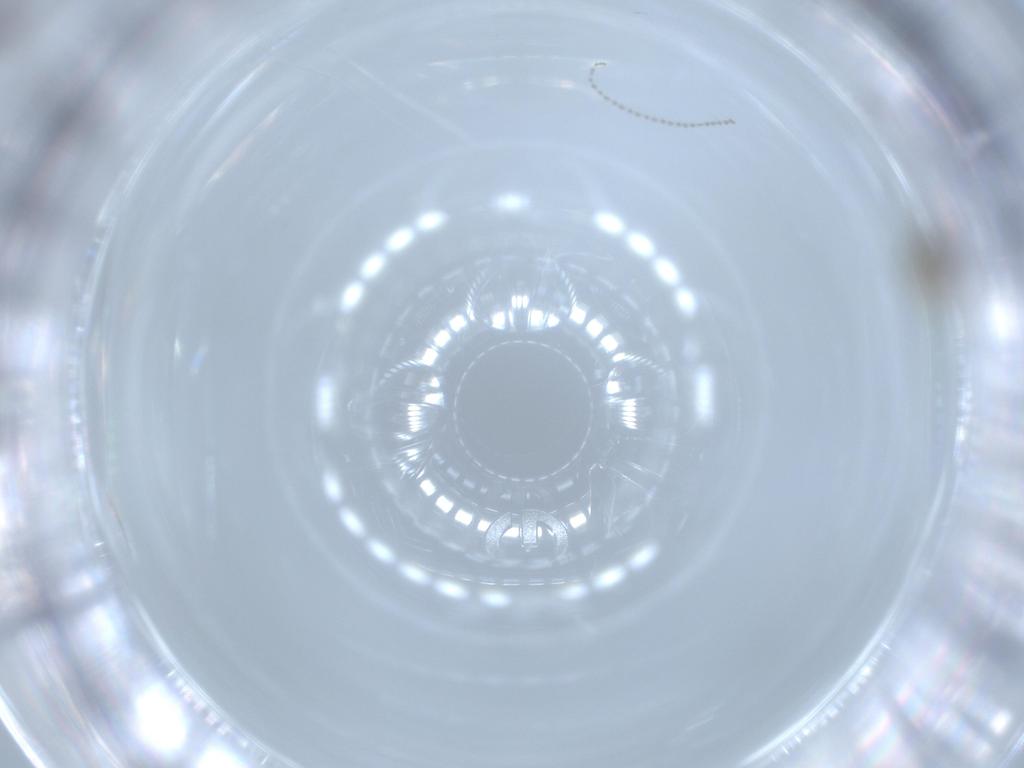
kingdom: Animalia
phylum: Arthropoda
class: Insecta
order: Diptera
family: Cecidomyiidae
